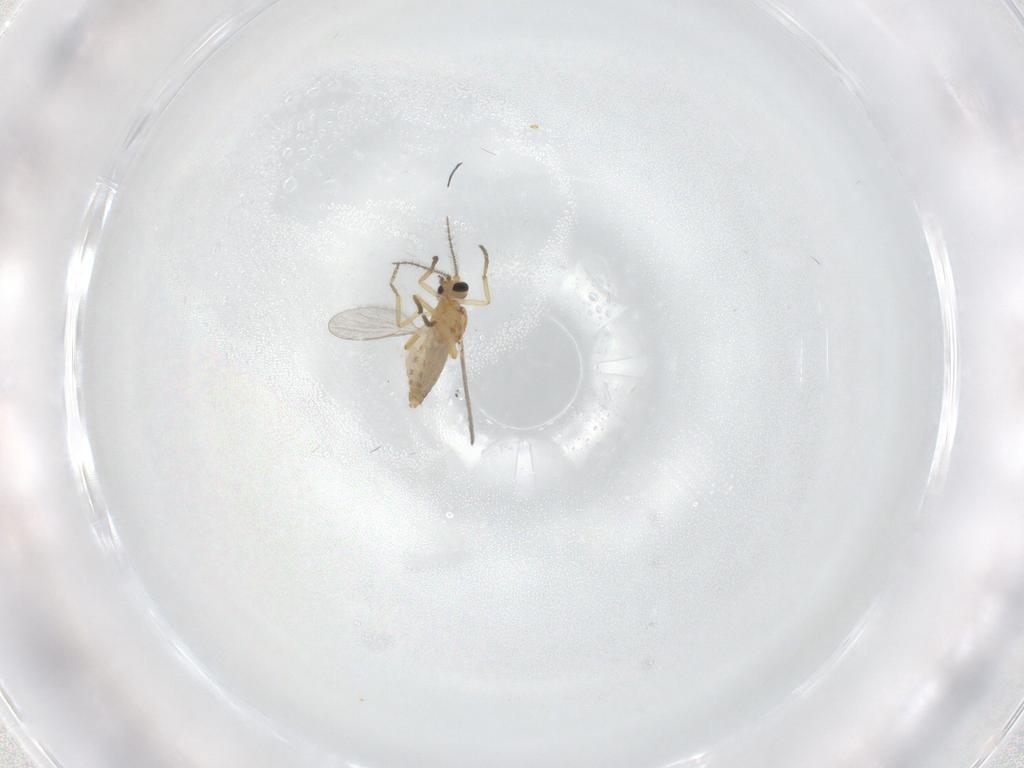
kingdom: Animalia
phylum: Arthropoda
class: Insecta
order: Diptera
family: Ceratopogonidae
